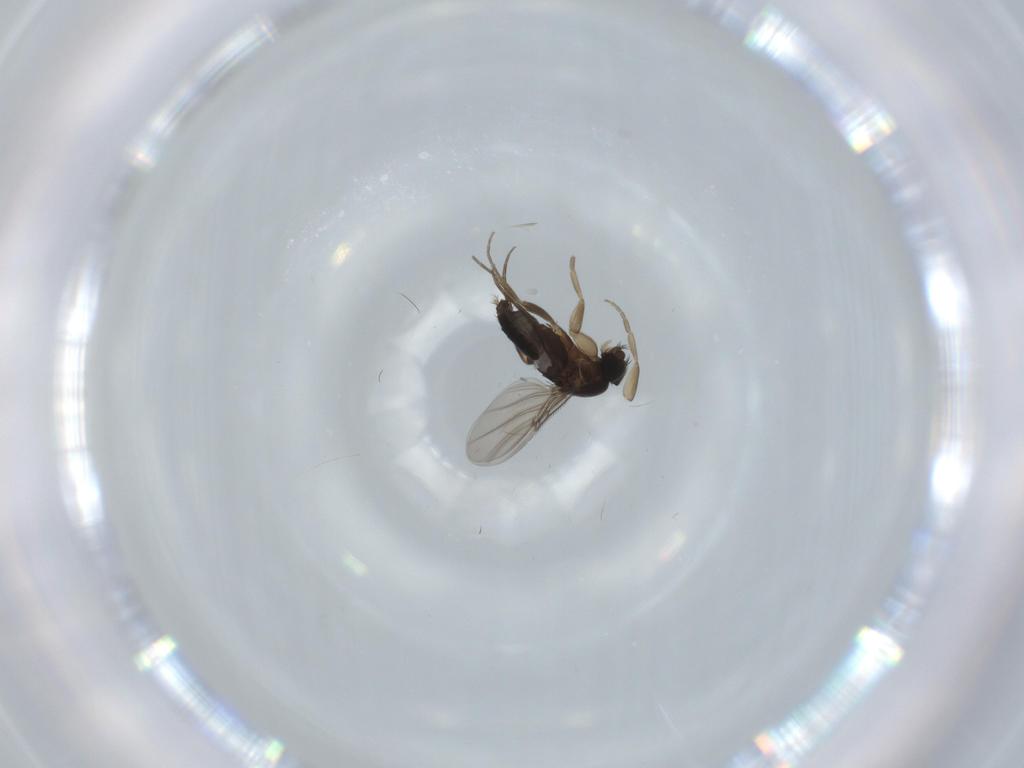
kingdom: Animalia
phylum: Arthropoda
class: Insecta
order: Diptera
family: Phoridae
